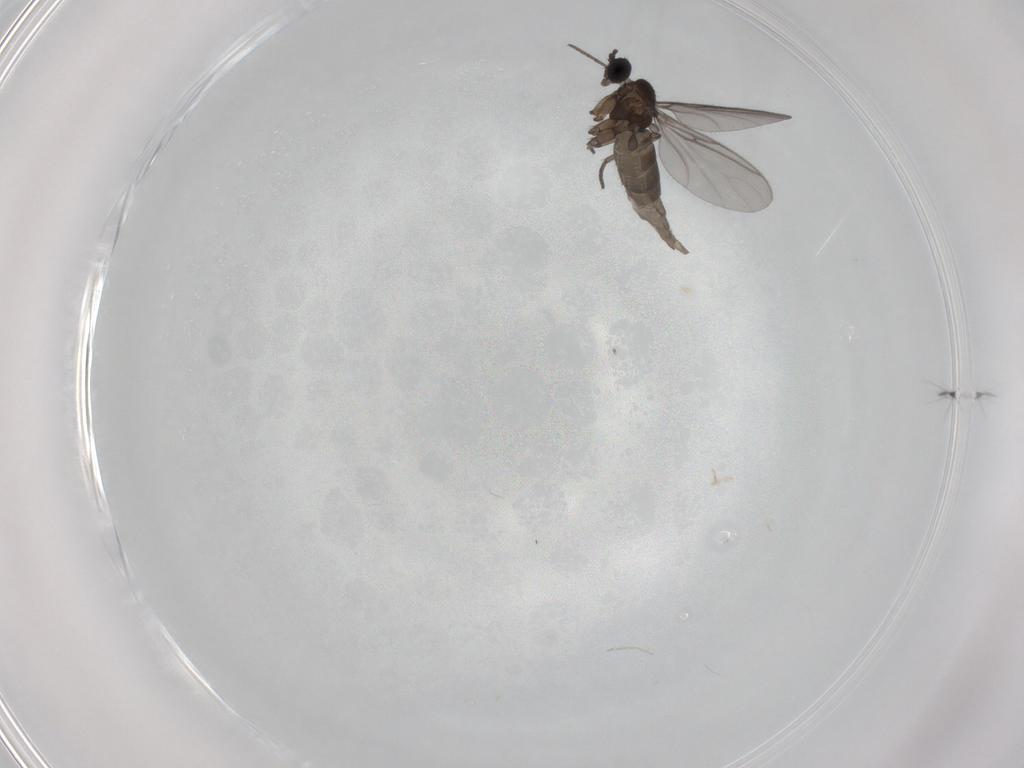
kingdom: Animalia
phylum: Arthropoda
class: Insecta
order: Diptera
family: Chironomidae
